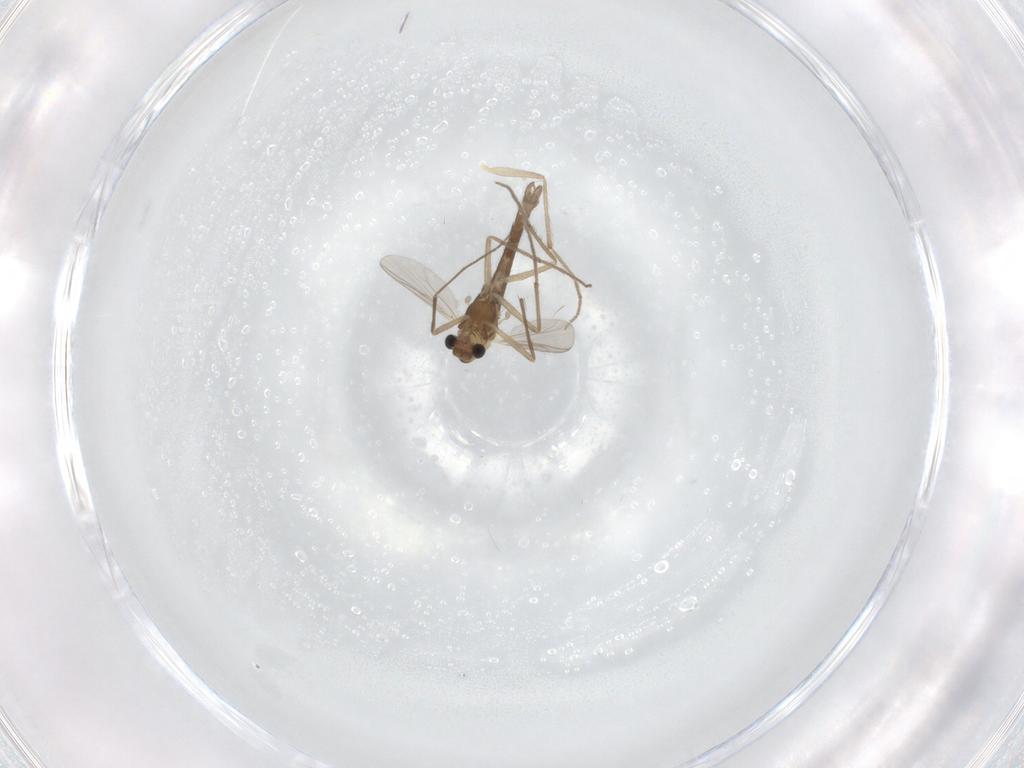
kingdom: Animalia
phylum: Arthropoda
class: Insecta
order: Diptera
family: Chironomidae
